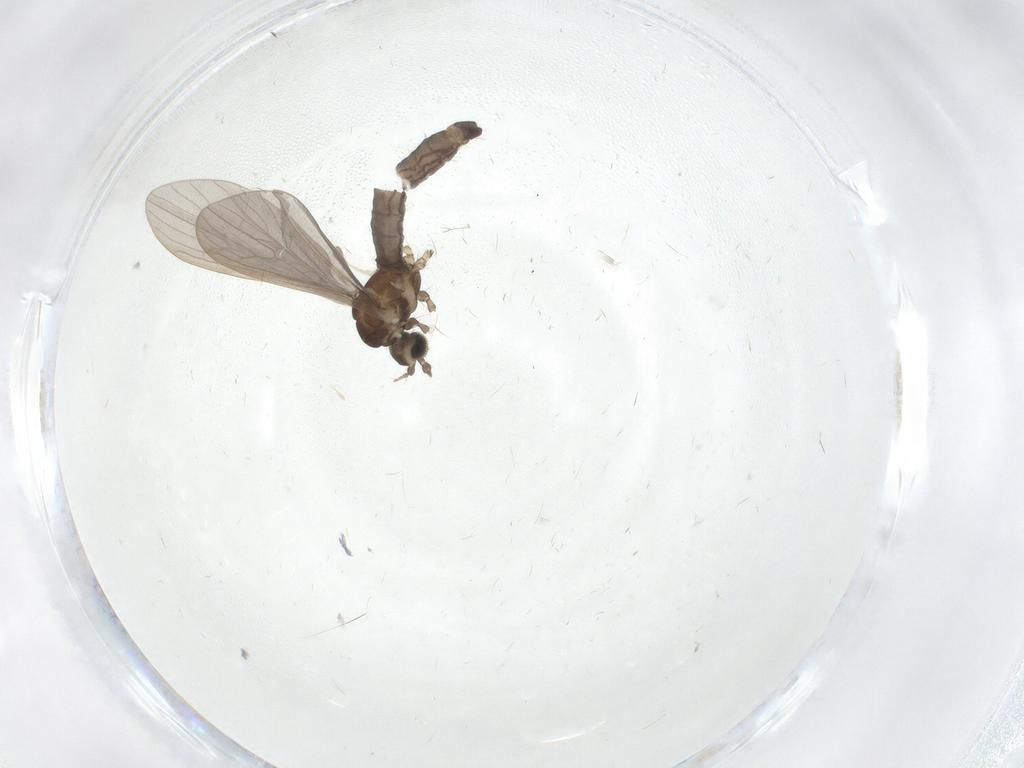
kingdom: Animalia
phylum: Arthropoda
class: Insecta
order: Diptera
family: Limoniidae
